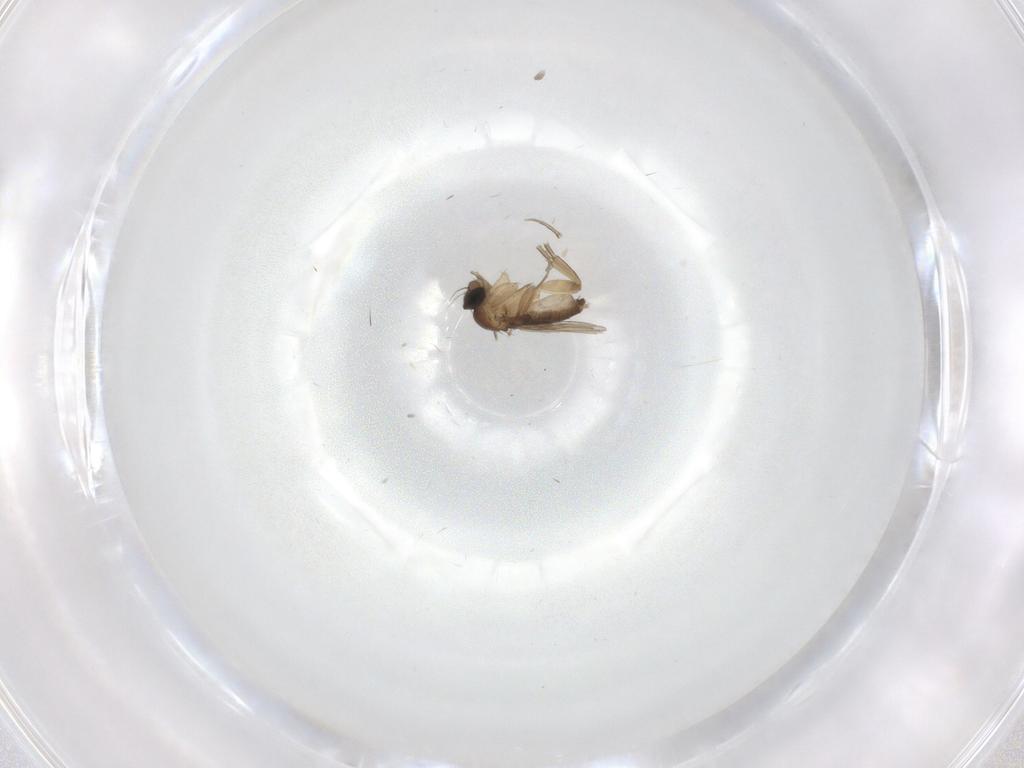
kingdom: Animalia
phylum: Arthropoda
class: Insecta
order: Diptera
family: Phoridae
